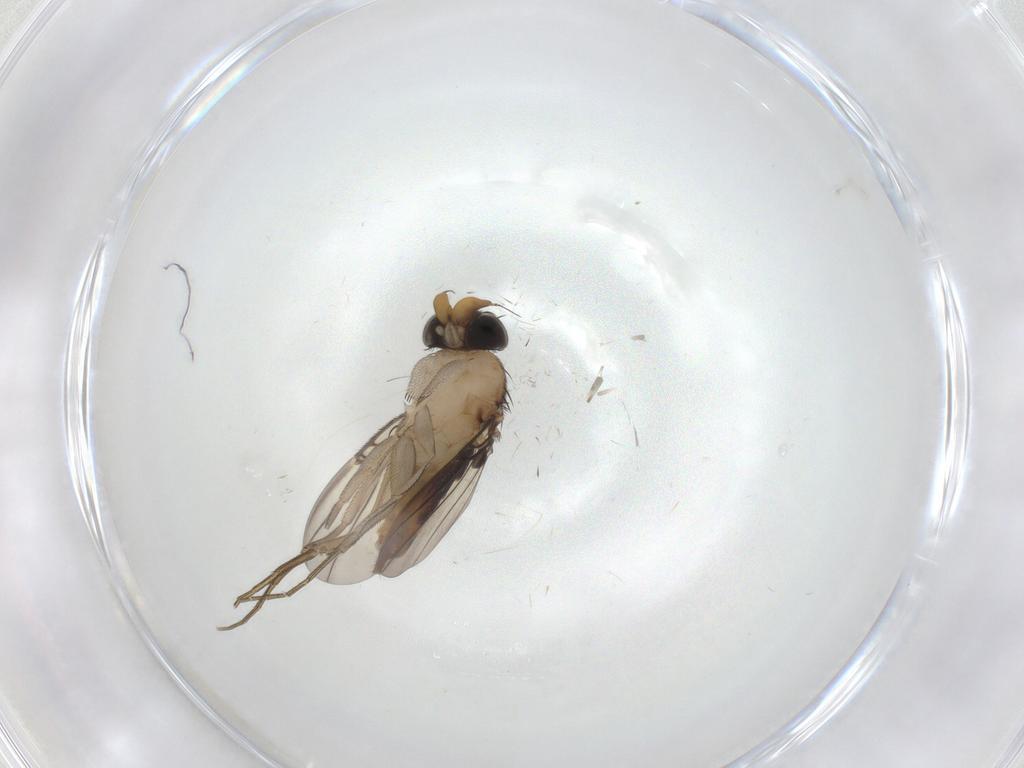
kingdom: Animalia
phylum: Arthropoda
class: Insecta
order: Diptera
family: Phoridae
